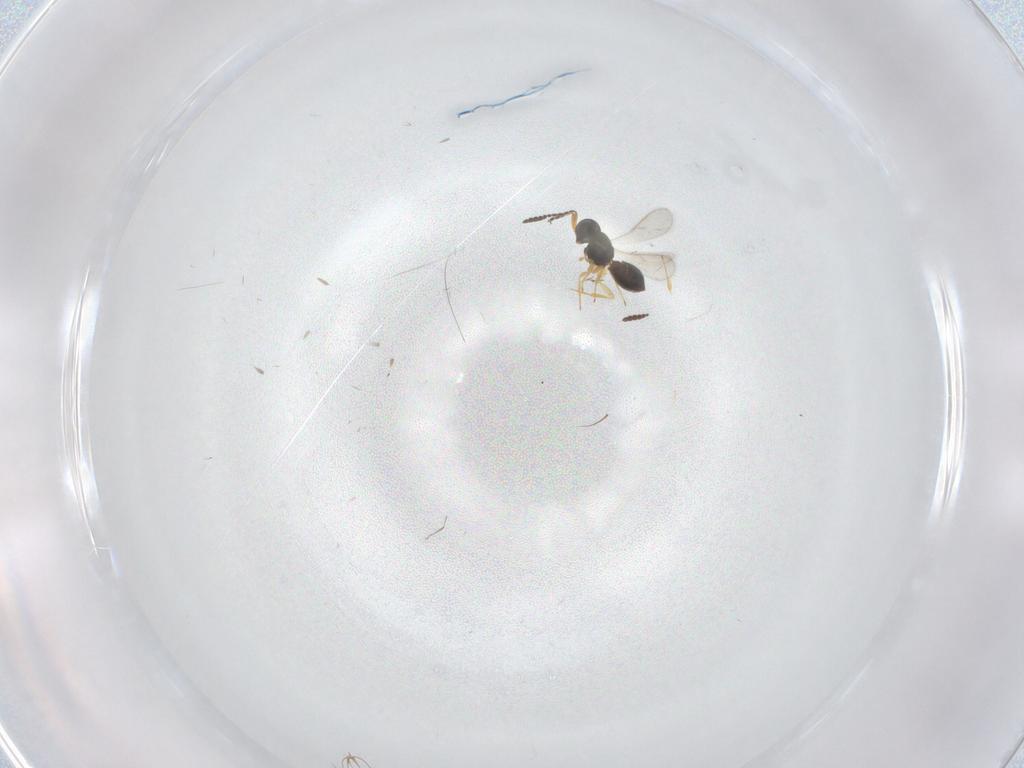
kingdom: Animalia
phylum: Arthropoda
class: Insecta
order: Hymenoptera
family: Scelionidae
